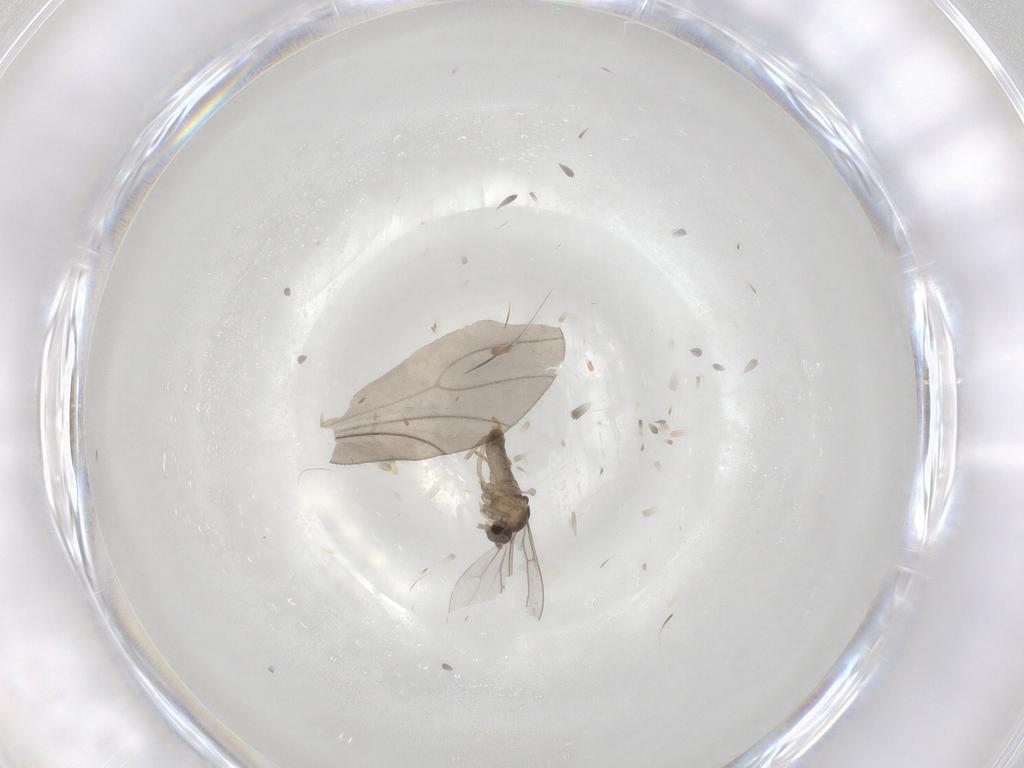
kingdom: Animalia
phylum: Arthropoda
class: Insecta
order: Diptera
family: Cecidomyiidae
